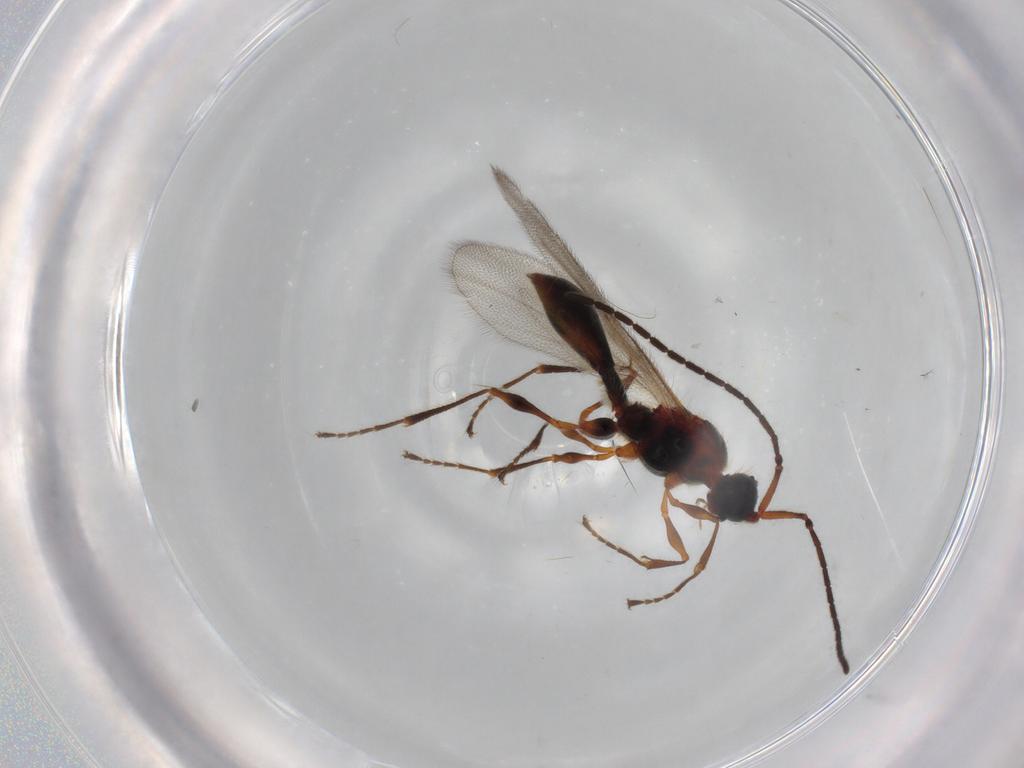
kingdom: Animalia
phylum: Arthropoda
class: Insecta
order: Hymenoptera
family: Diapriidae
